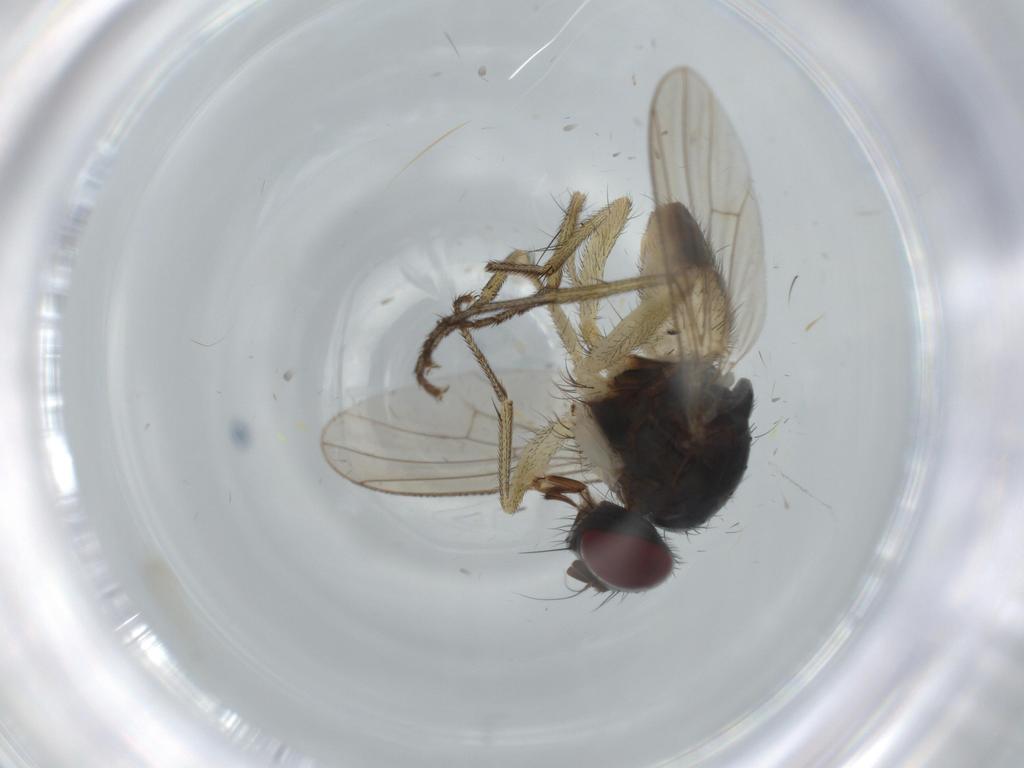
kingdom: Animalia
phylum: Arthropoda
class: Insecta
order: Diptera
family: Muscidae
